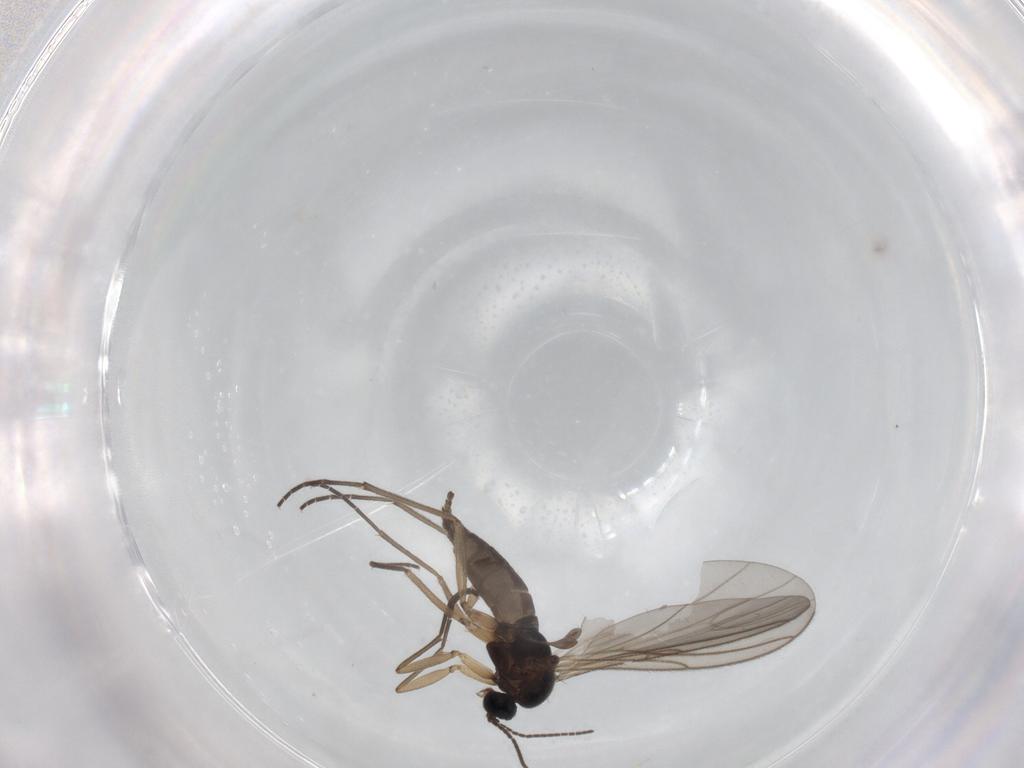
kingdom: Animalia
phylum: Arthropoda
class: Insecta
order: Diptera
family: Sciaridae
